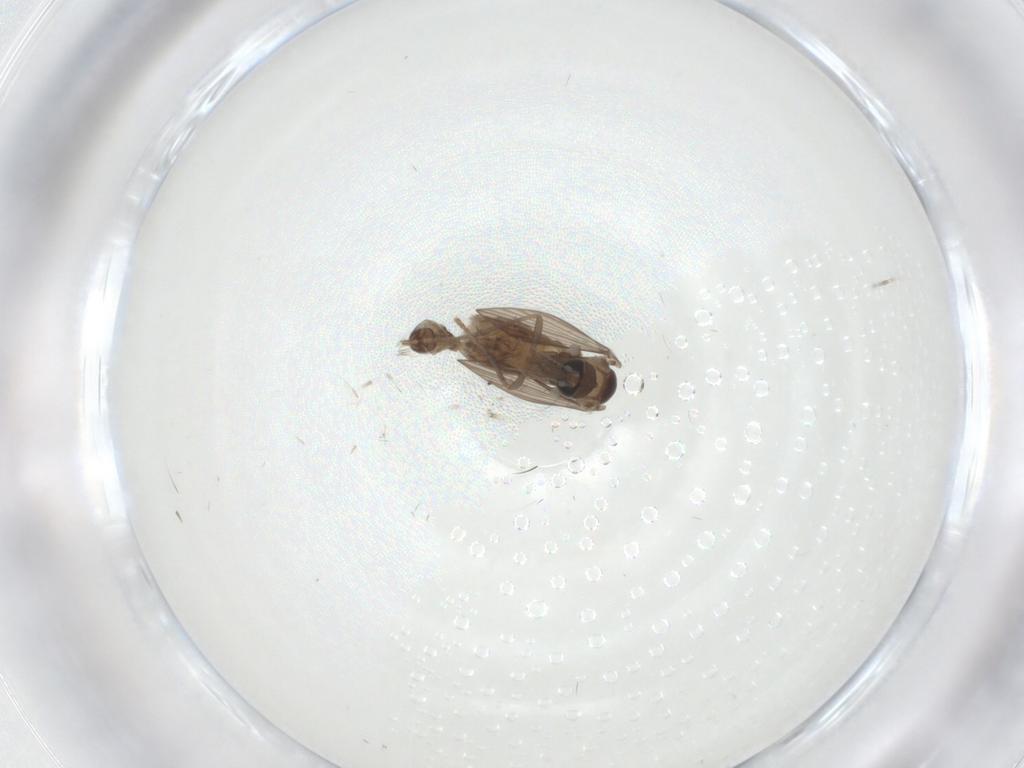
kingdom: Animalia
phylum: Arthropoda
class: Insecta
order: Diptera
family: Psychodidae
